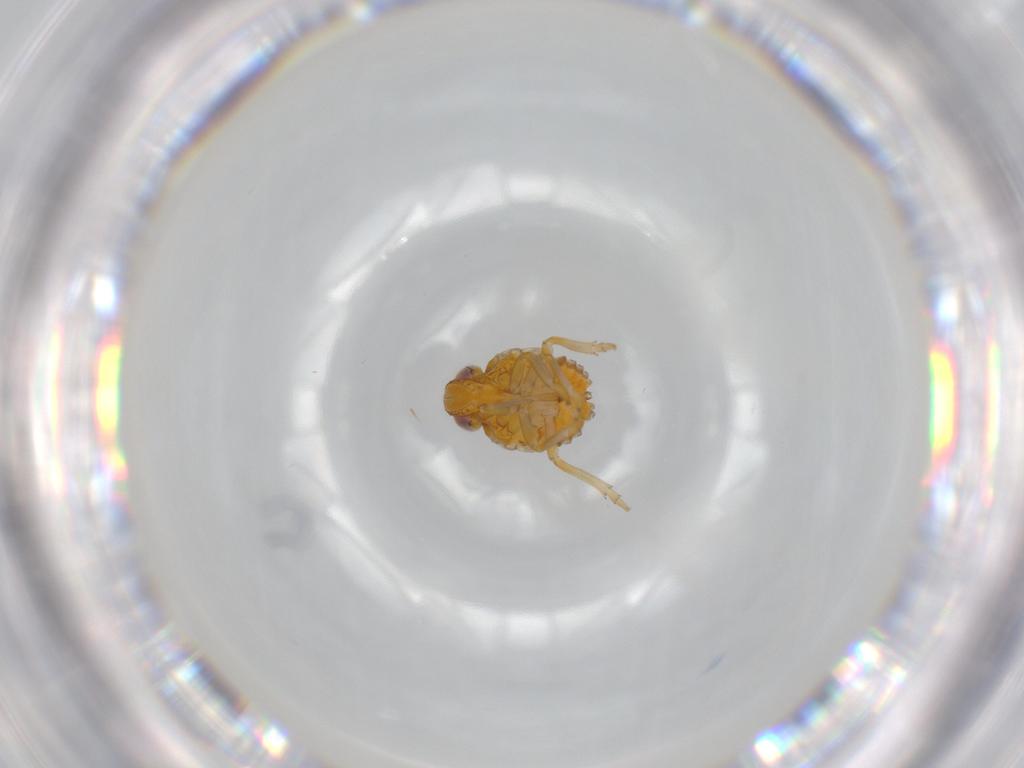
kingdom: Animalia
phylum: Arthropoda
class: Insecta
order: Hemiptera
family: Issidae
